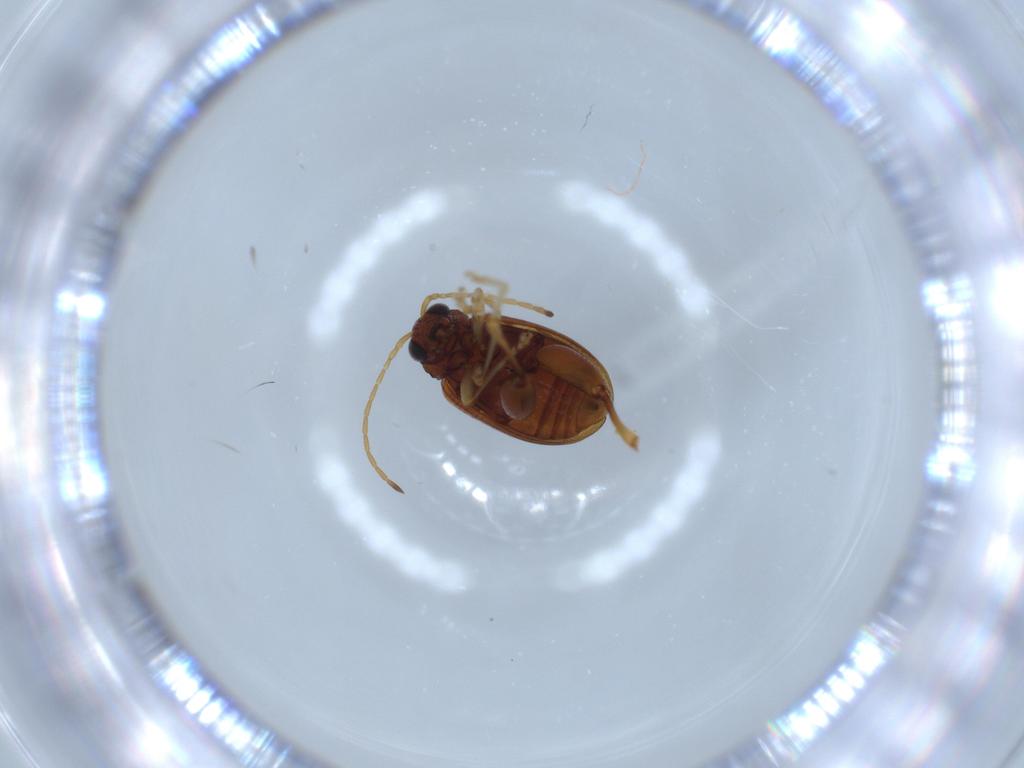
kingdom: Animalia
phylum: Arthropoda
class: Insecta
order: Coleoptera
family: Chrysomelidae
